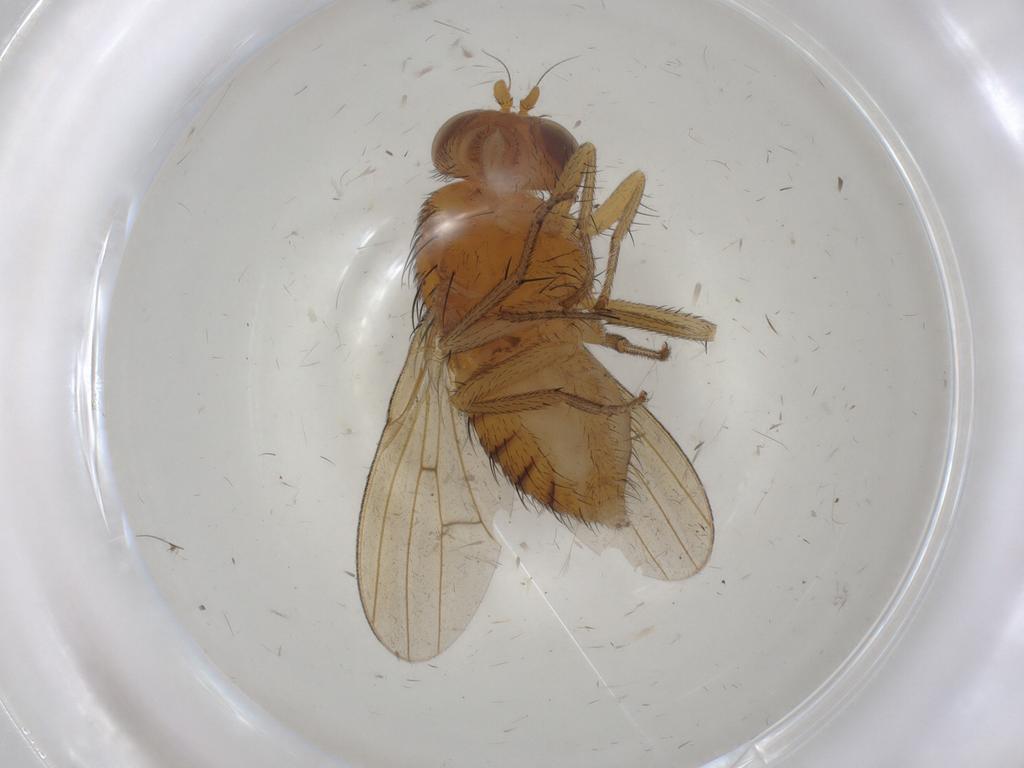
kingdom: Animalia
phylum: Arthropoda
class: Insecta
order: Diptera
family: Cecidomyiidae
